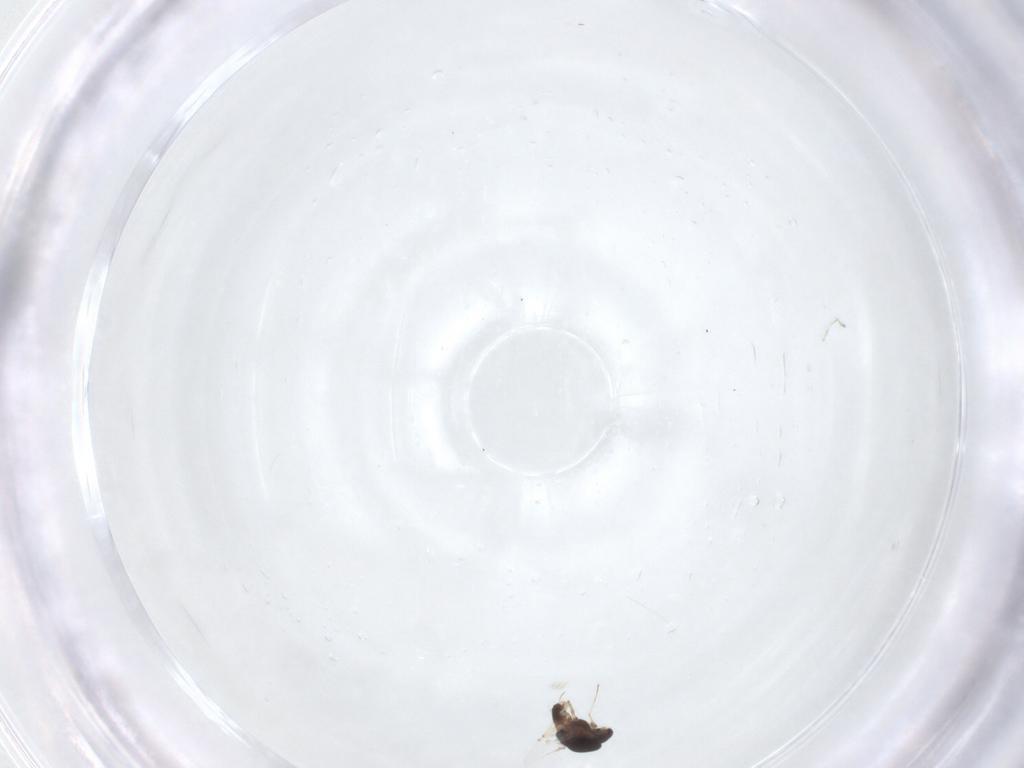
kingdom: Animalia
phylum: Arthropoda
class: Insecta
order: Diptera
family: Chironomidae
